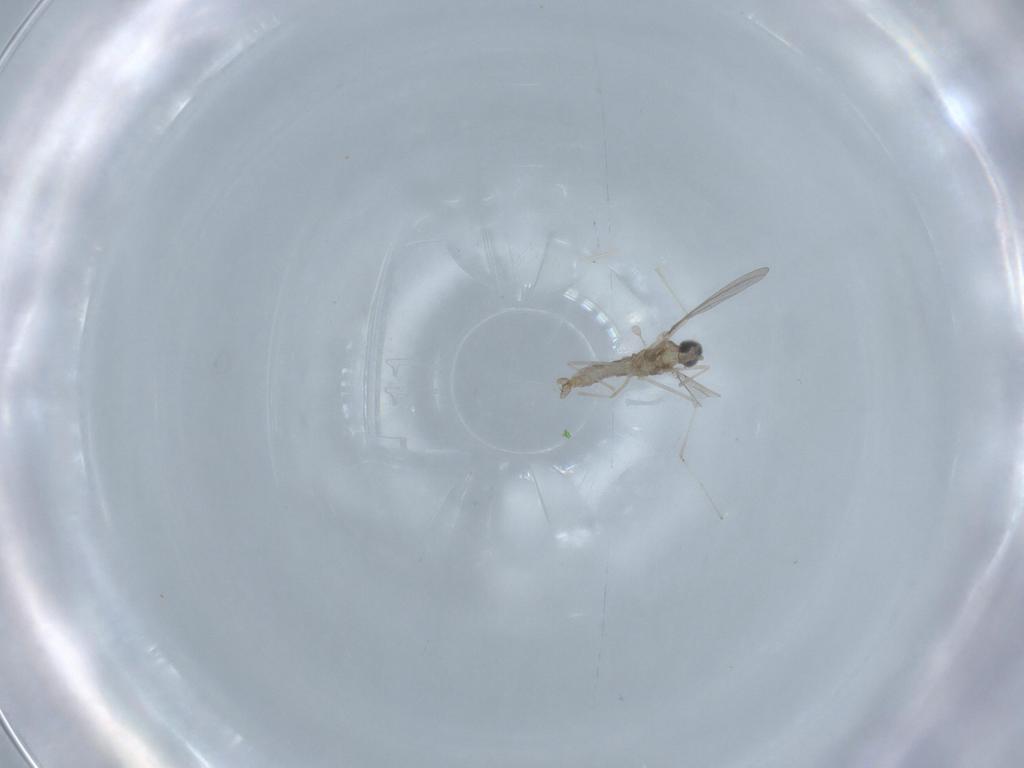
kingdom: Animalia
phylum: Arthropoda
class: Insecta
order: Diptera
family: Cecidomyiidae
